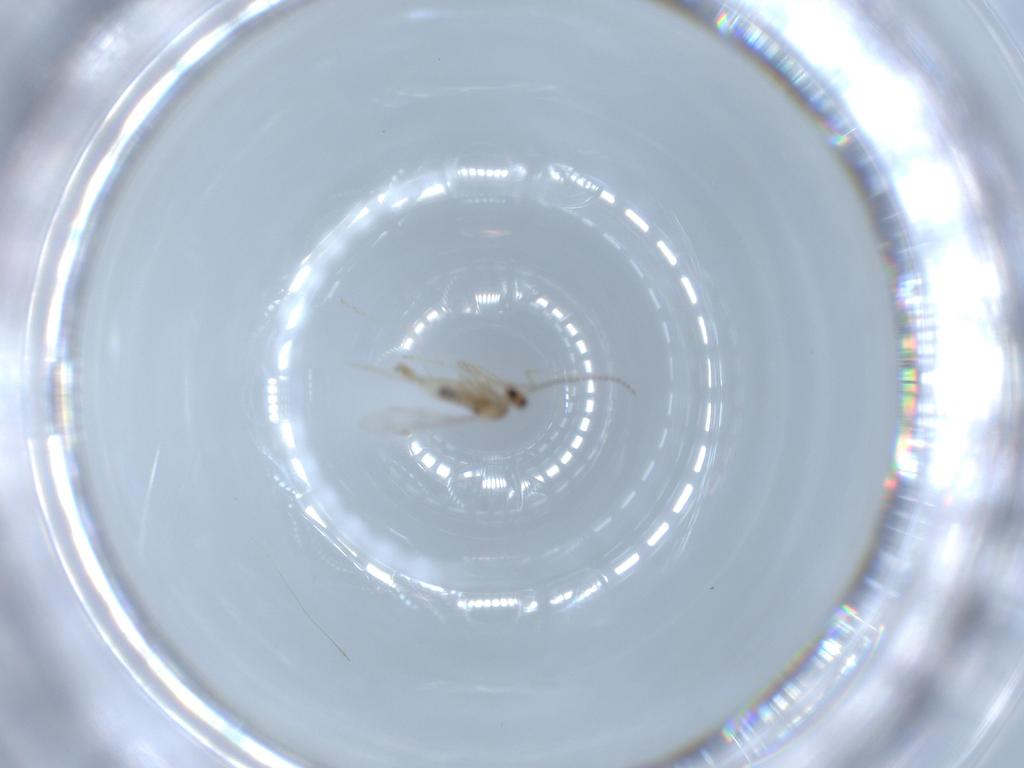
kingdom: Animalia
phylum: Arthropoda
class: Insecta
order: Diptera
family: Cecidomyiidae
